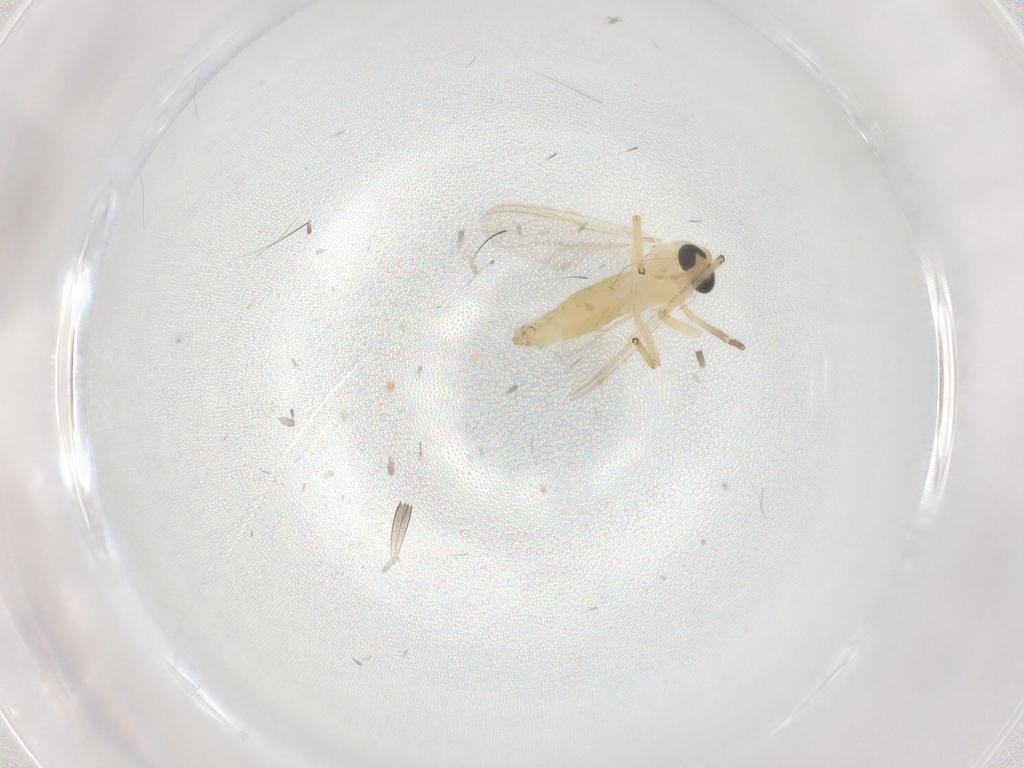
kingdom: Animalia
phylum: Arthropoda
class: Insecta
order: Diptera
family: Chironomidae
